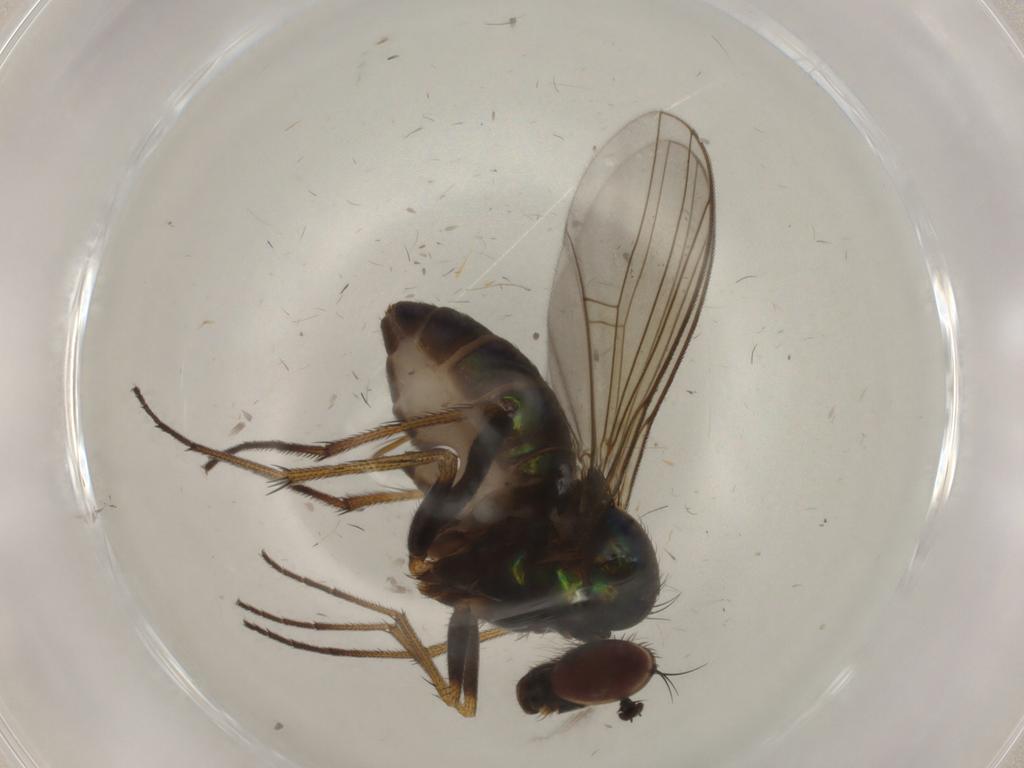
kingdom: Animalia
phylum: Arthropoda
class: Insecta
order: Diptera
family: Dolichopodidae
